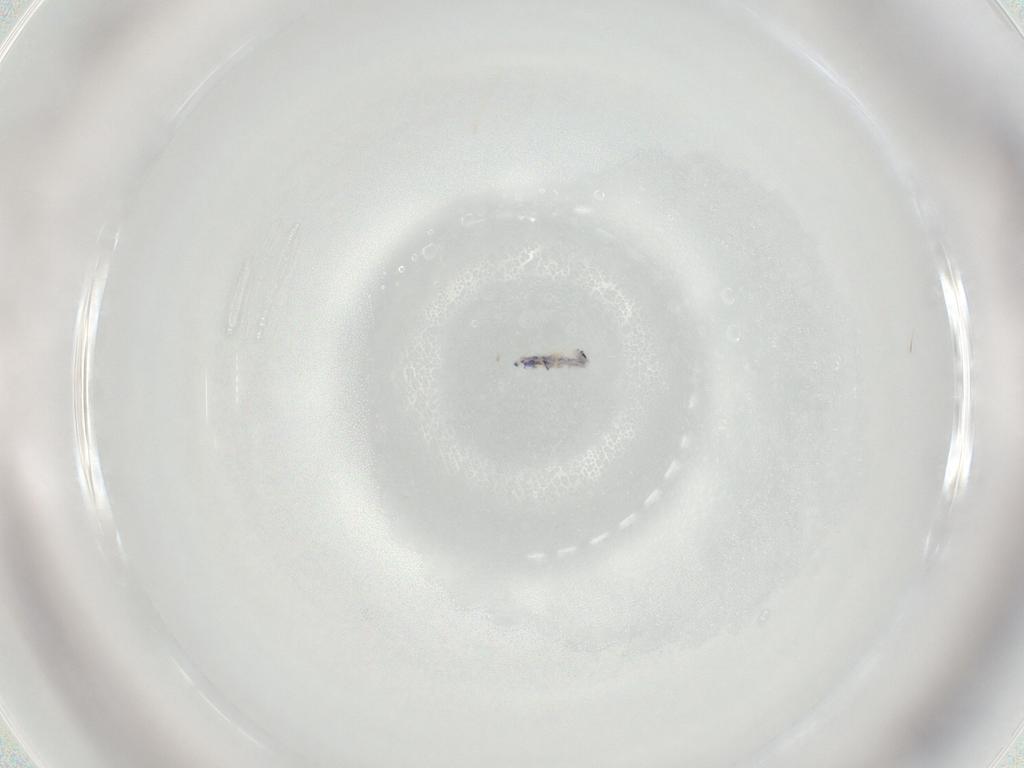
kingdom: Animalia
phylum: Arthropoda
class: Collembola
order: Entomobryomorpha
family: Entomobryidae
